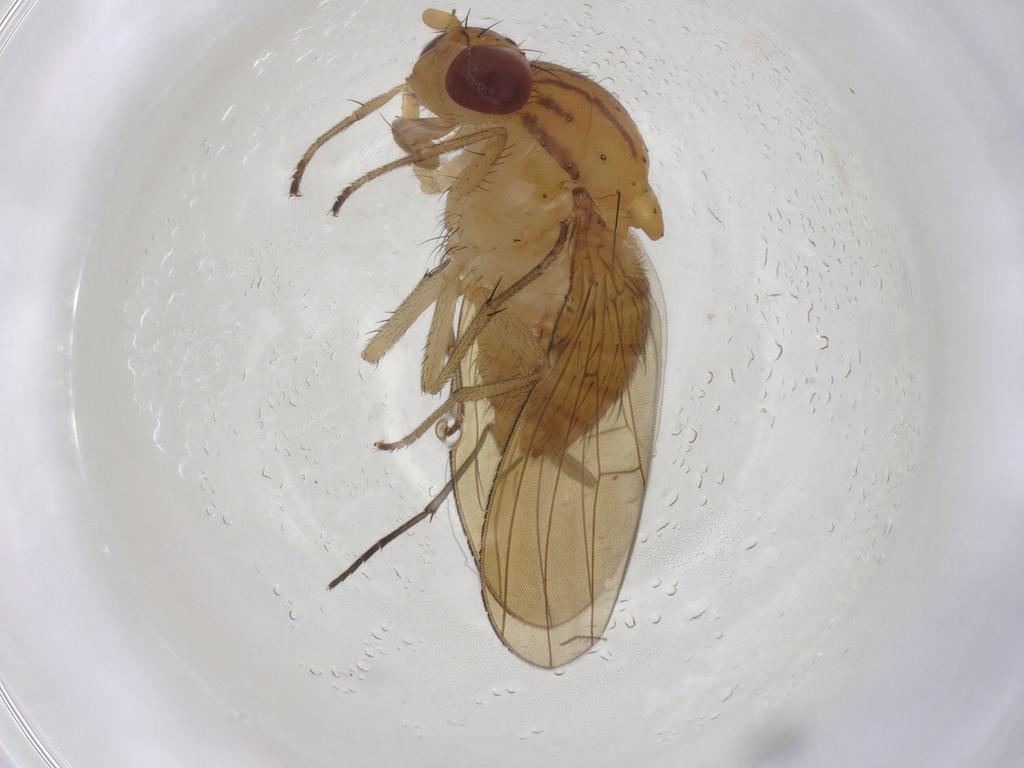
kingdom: Animalia
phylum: Arthropoda
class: Insecta
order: Diptera
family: Sciaridae
